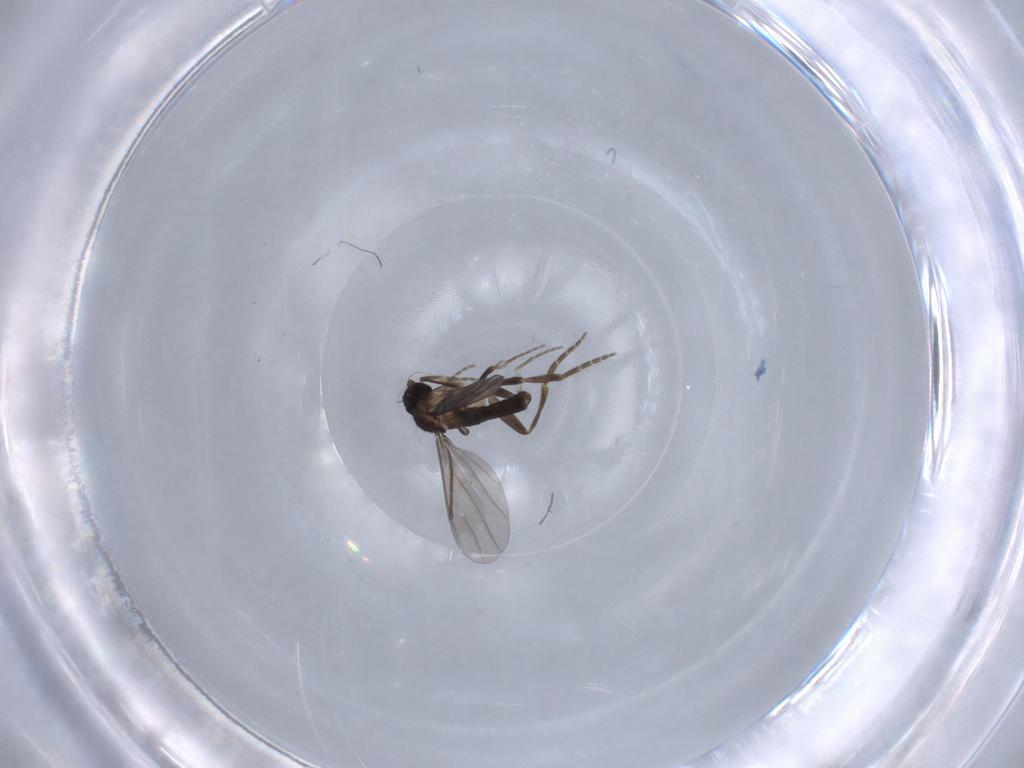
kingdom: Animalia
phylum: Arthropoda
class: Insecta
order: Diptera
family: Phoridae
